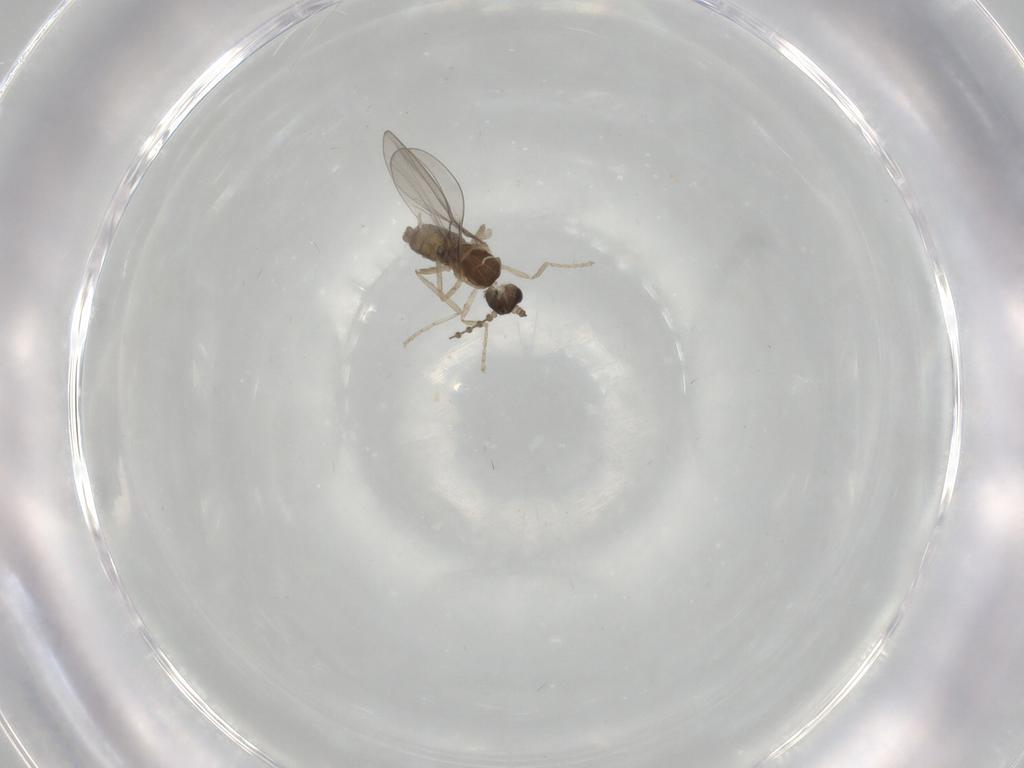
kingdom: Animalia
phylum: Arthropoda
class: Insecta
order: Diptera
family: Cecidomyiidae
